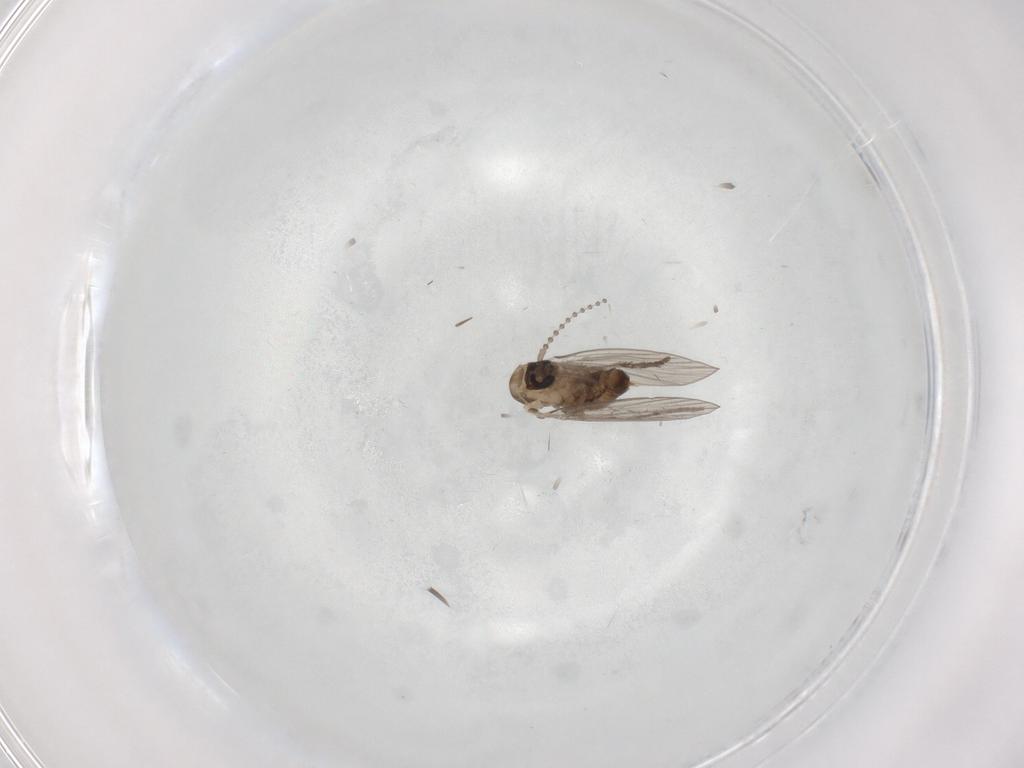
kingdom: Animalia
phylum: Arthropoda
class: Insecta
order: Diptera
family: Psychodidae
